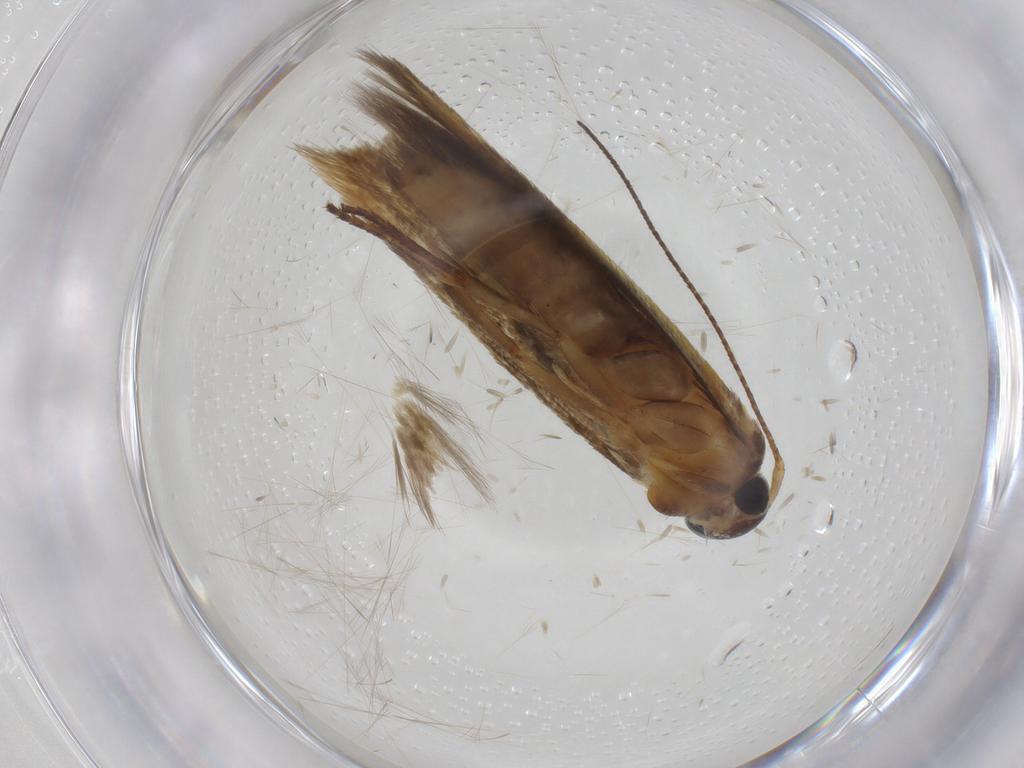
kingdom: Animalia
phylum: Arthropoda
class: Insecta
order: Lepidoptera
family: Stathmopodidae
